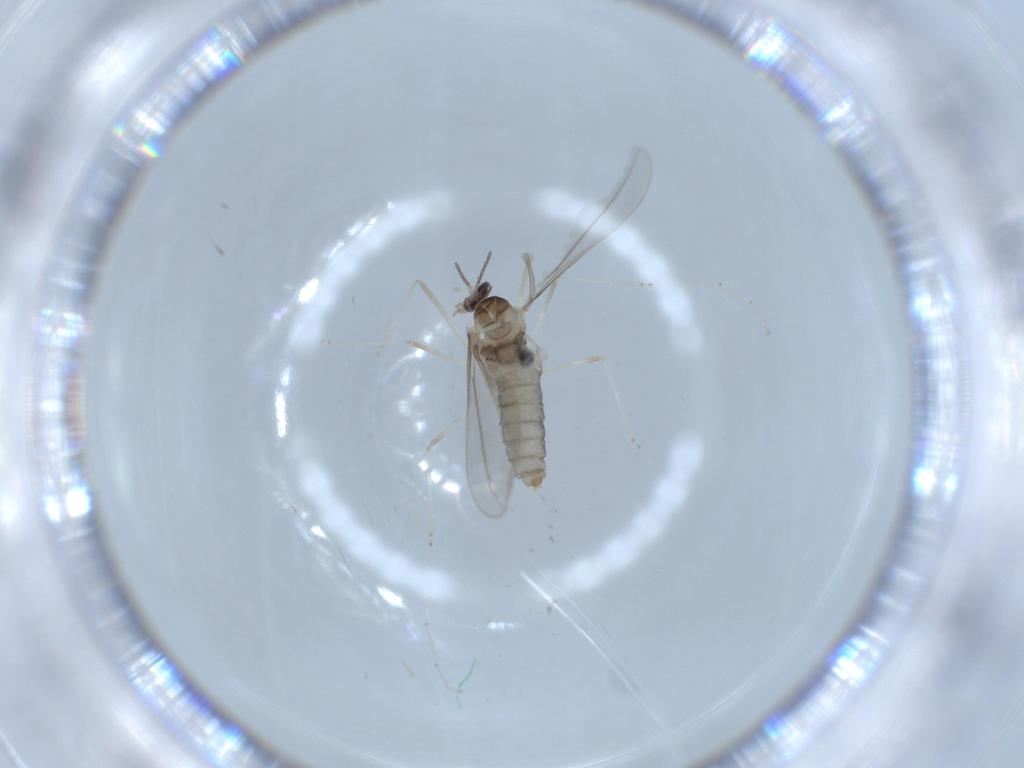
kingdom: Animalia
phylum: Arthropoda
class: Insecta
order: Diptera
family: Cecidomyiidae
